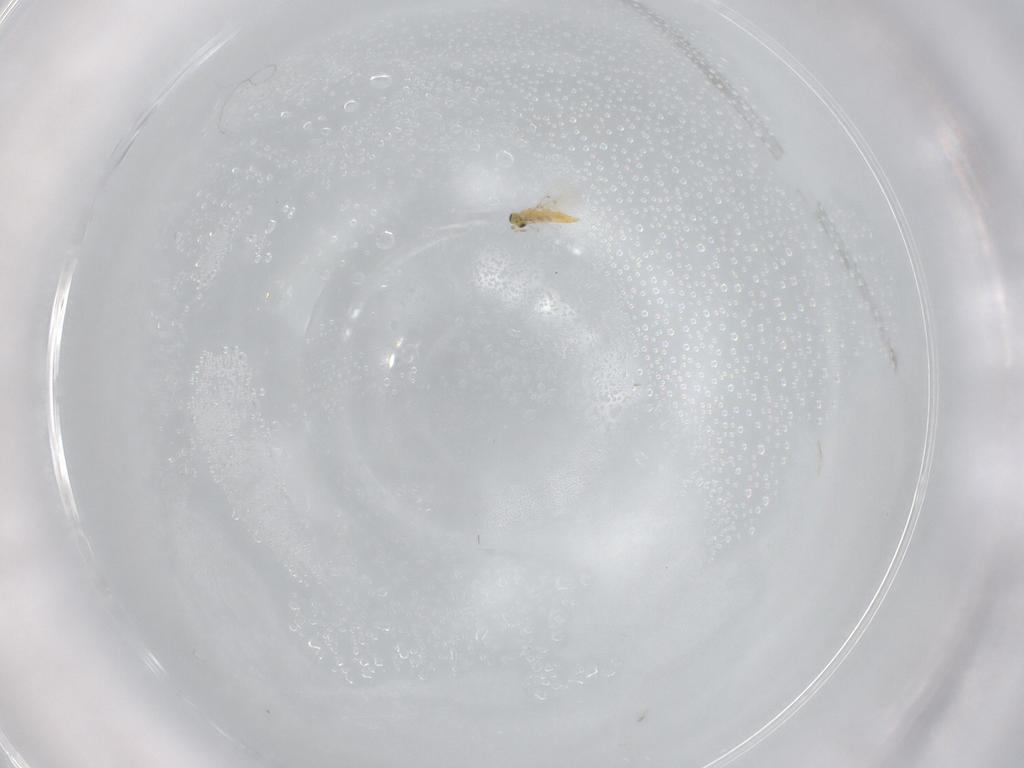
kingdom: Animalia
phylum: Arthropoda
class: Insecta
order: Hymenoptera
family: Trichogrammatidae
